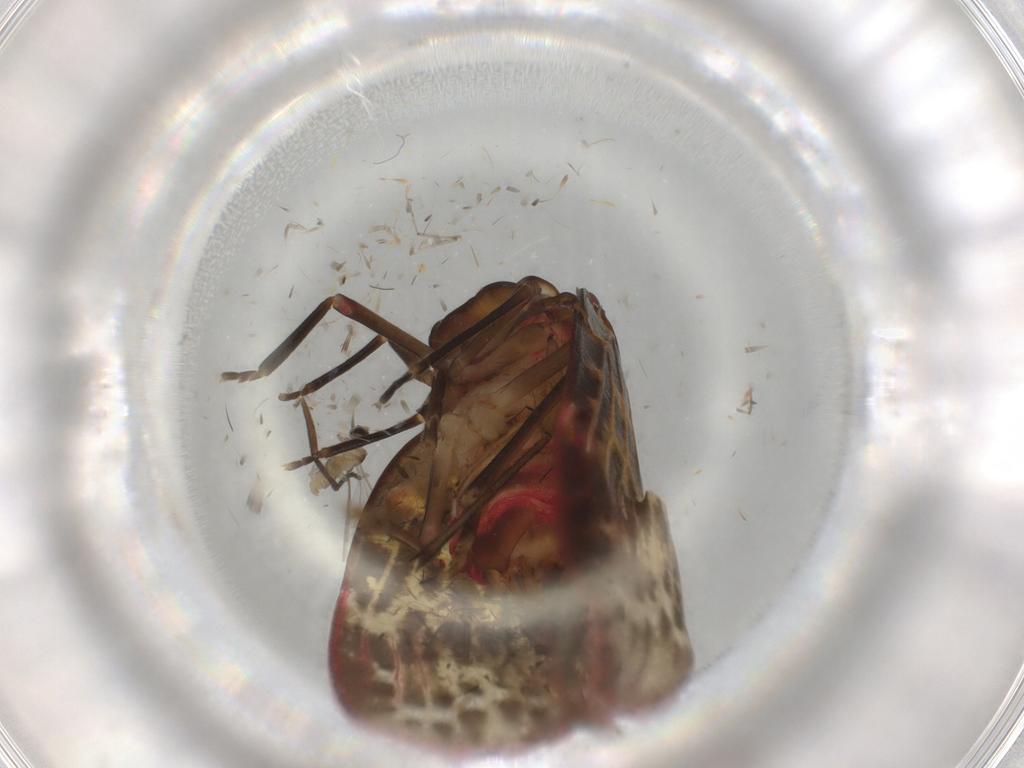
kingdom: Animalia
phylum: Arthropoda
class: Insecta
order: Hemiptera
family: Achilidae
